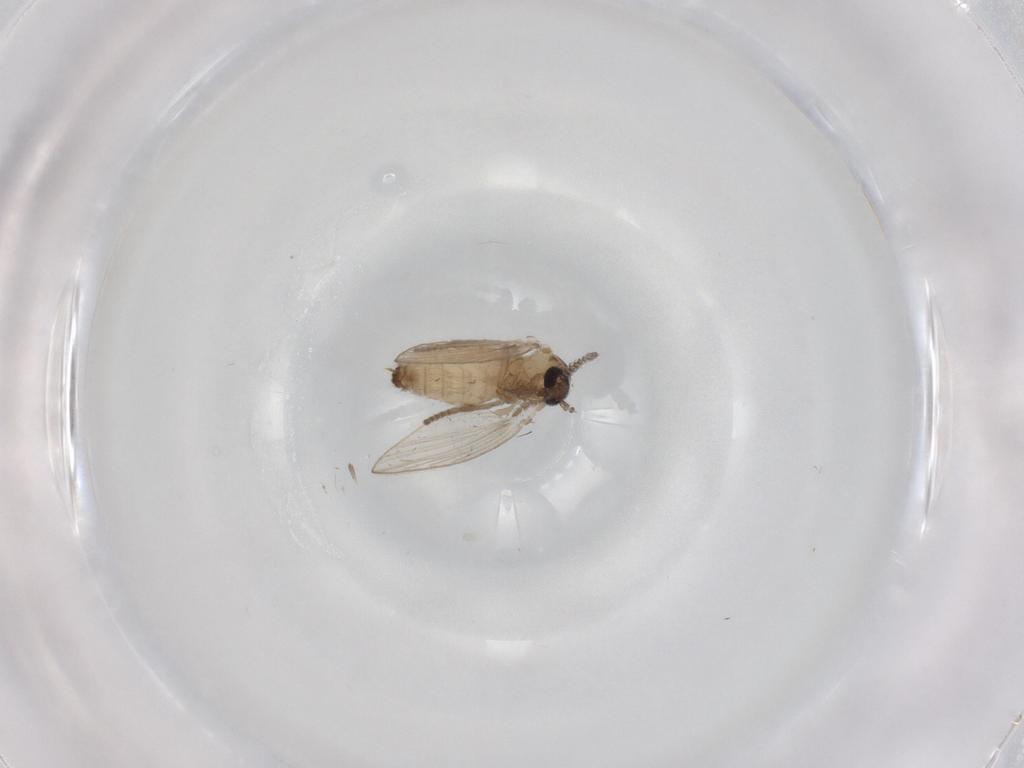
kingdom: Animalia
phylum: Arthropoda
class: Insecta
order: Diptera
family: Psychodidae
